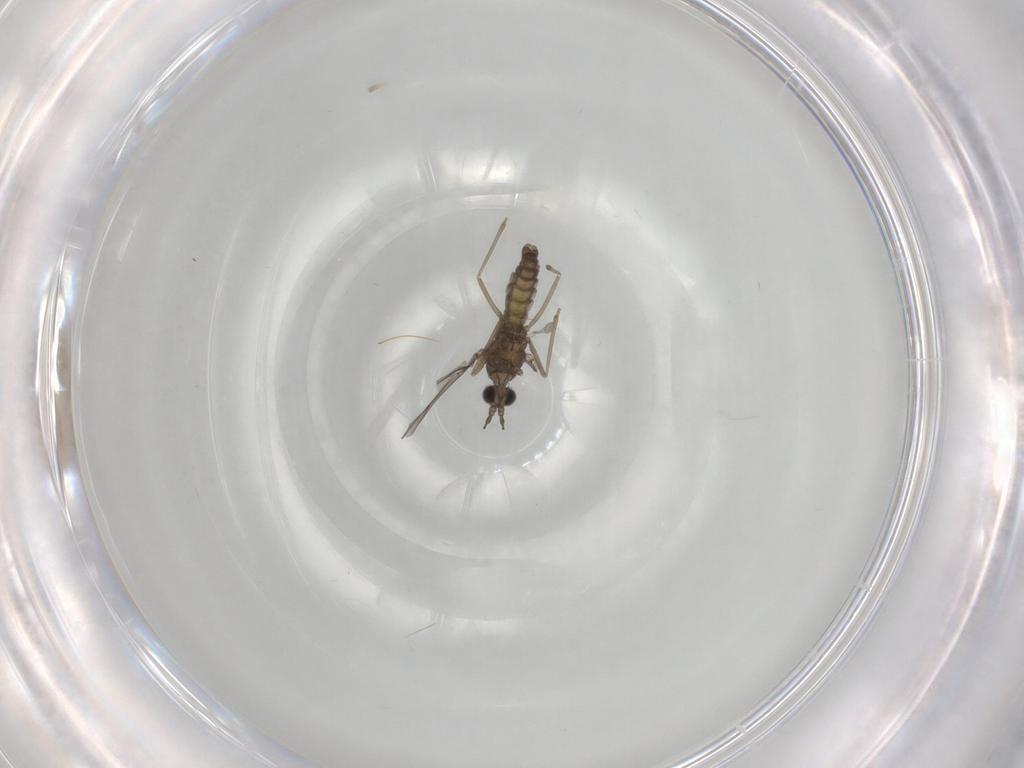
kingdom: Animalia
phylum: Arthropoda
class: Insecta
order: Diptera
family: Cecidomyiidae
